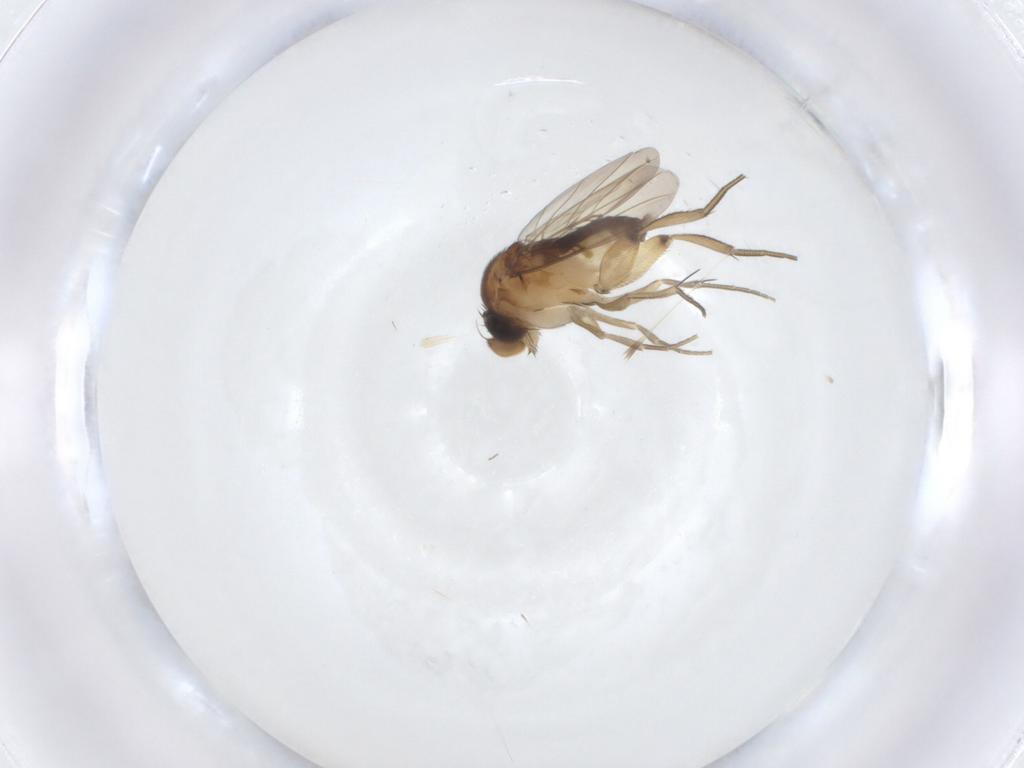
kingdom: Animalia
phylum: Arthropoda
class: Insecta
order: Diptera
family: Phoridae
